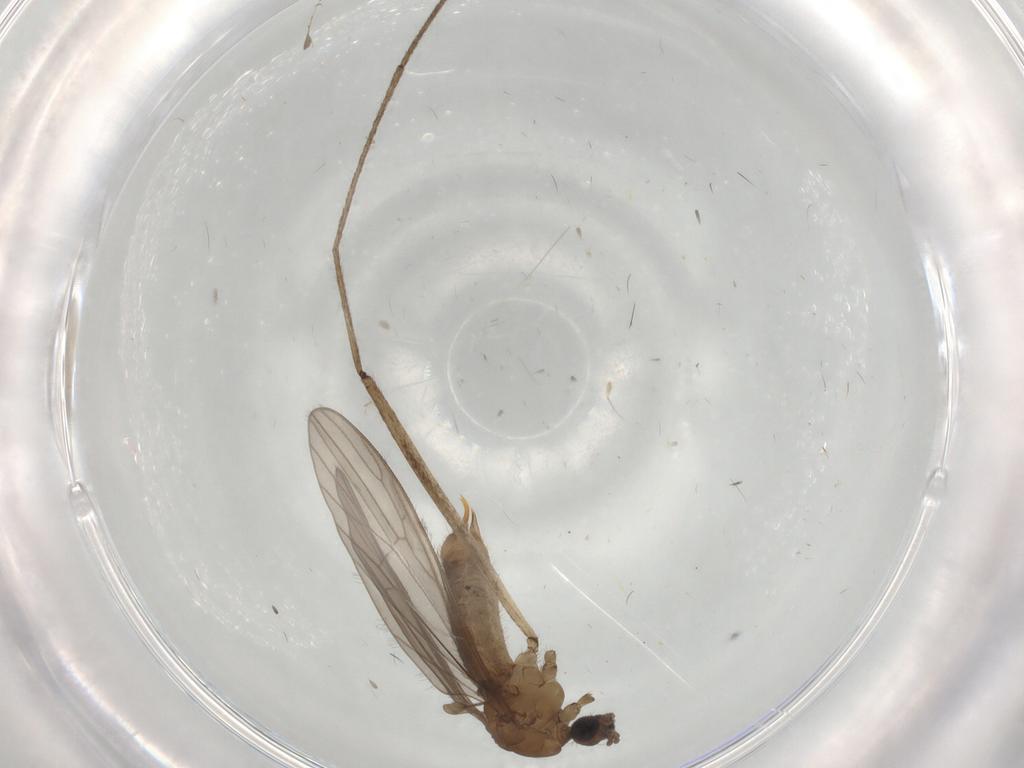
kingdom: Animalia
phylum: Arthropoda
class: Insecta
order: Diptera
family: Limoniidae
